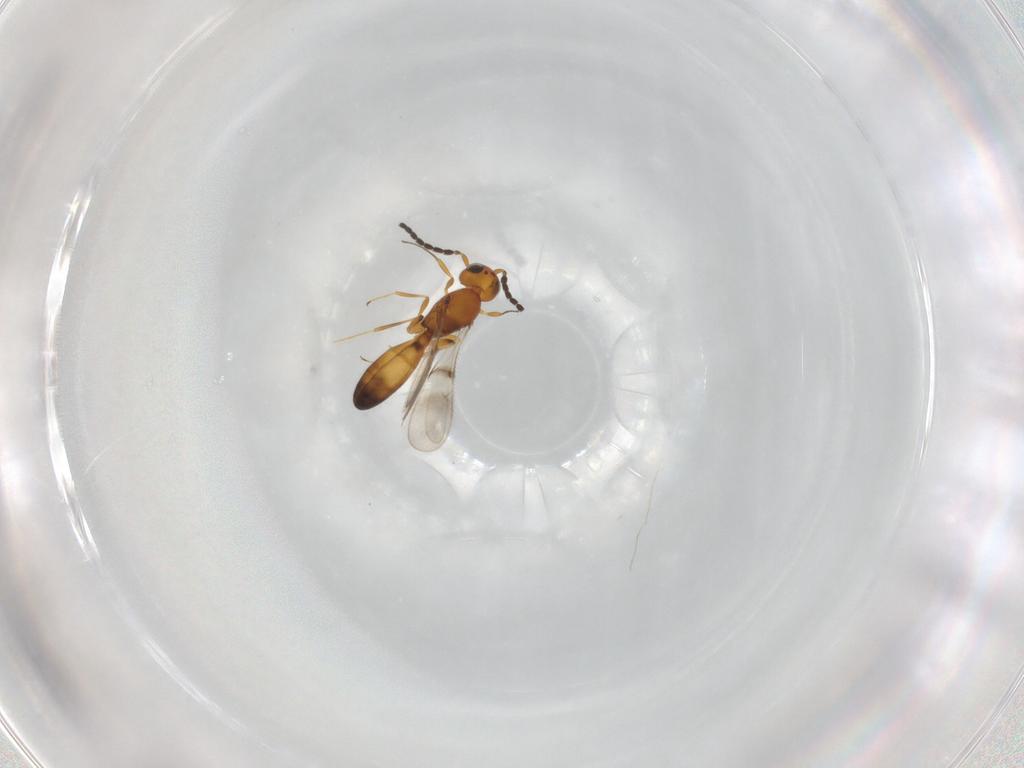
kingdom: Animalia
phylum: Arthropoda
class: Insecta
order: Hymenoptera
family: Scelionidae
